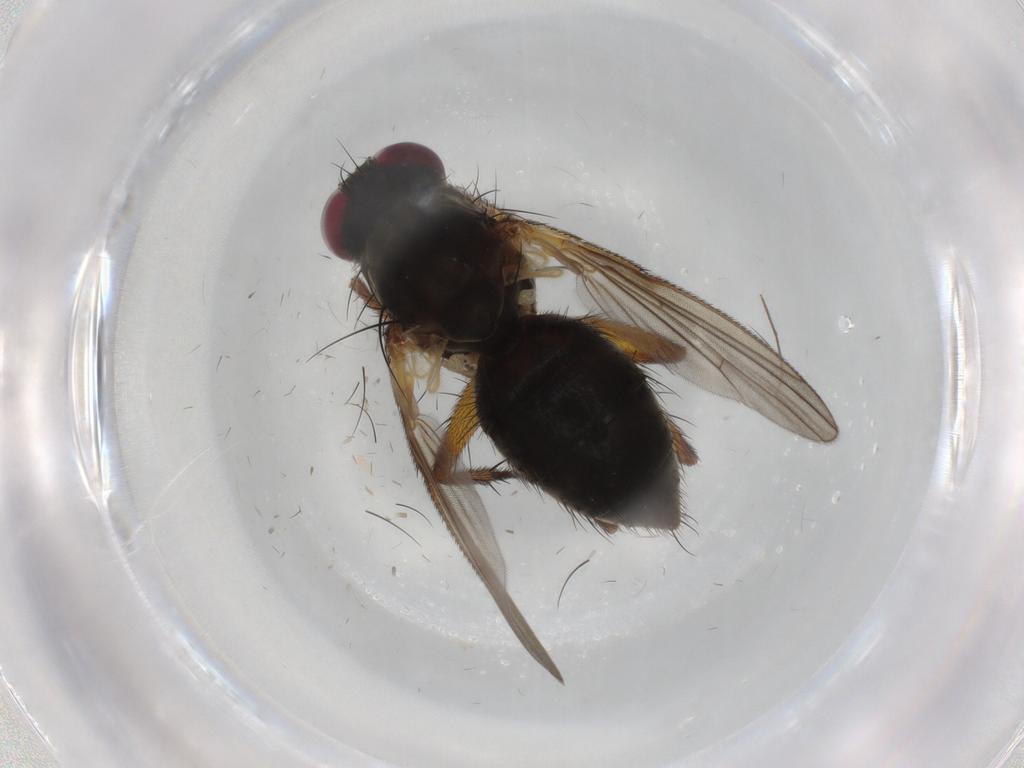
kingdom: Animalia
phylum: Arthropoda
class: Insecta
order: Diptera
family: Muscidae
